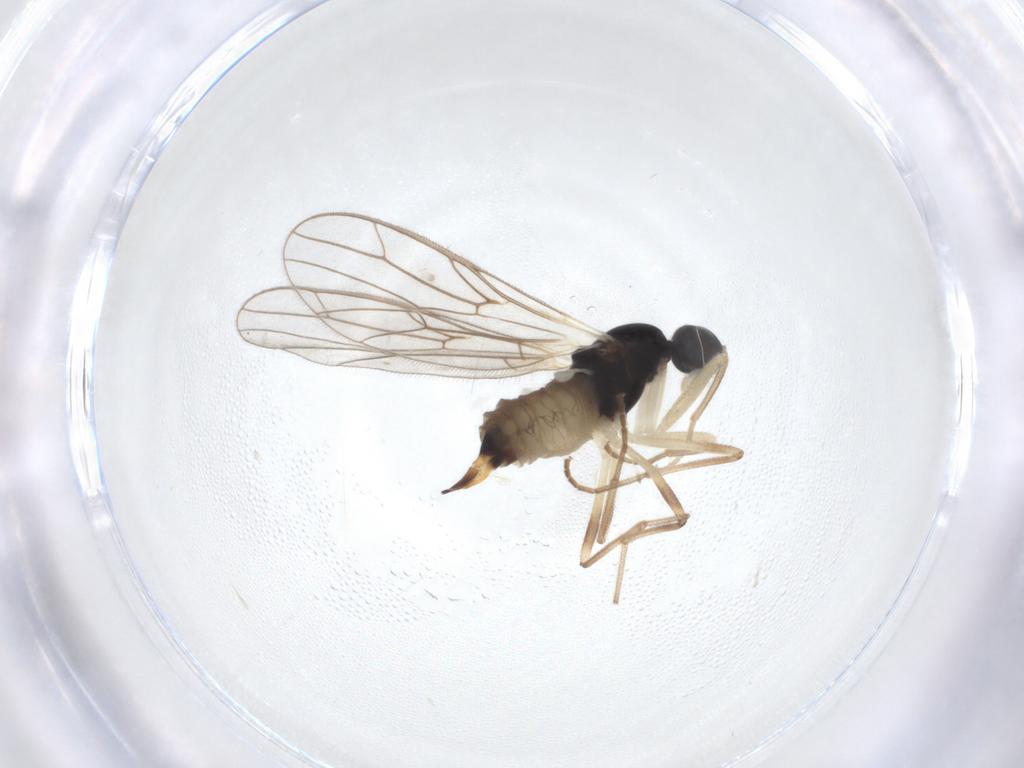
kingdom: Animalia
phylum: Arthropoda
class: Insecta
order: Diptera
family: Empididae
